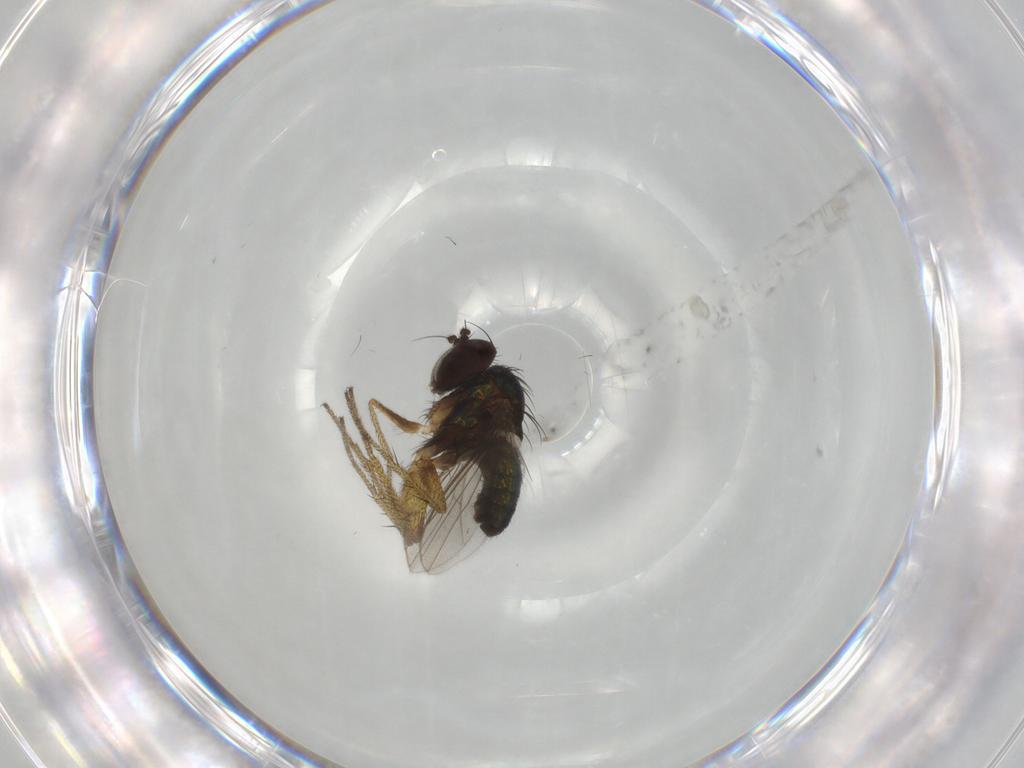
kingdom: Animalia
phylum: Arthropoda
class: Insecta
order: Diptera
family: Dolichopodidae
